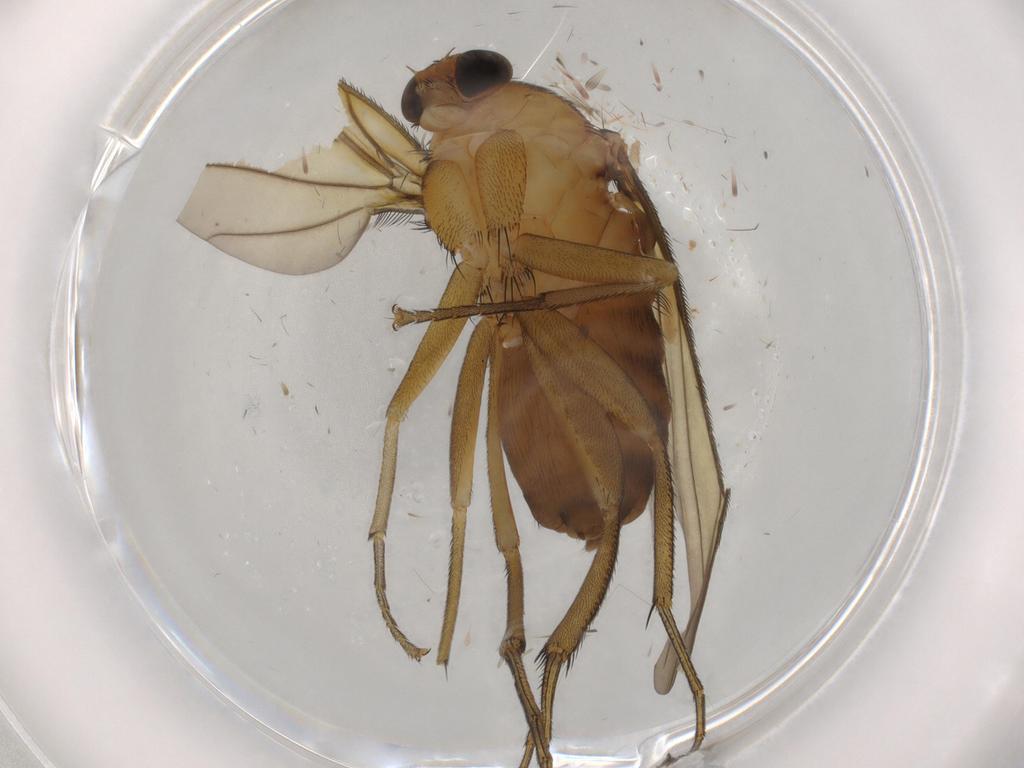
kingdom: Animalia
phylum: Arthropoda
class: Insecta
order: Diptera
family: Phoridae
